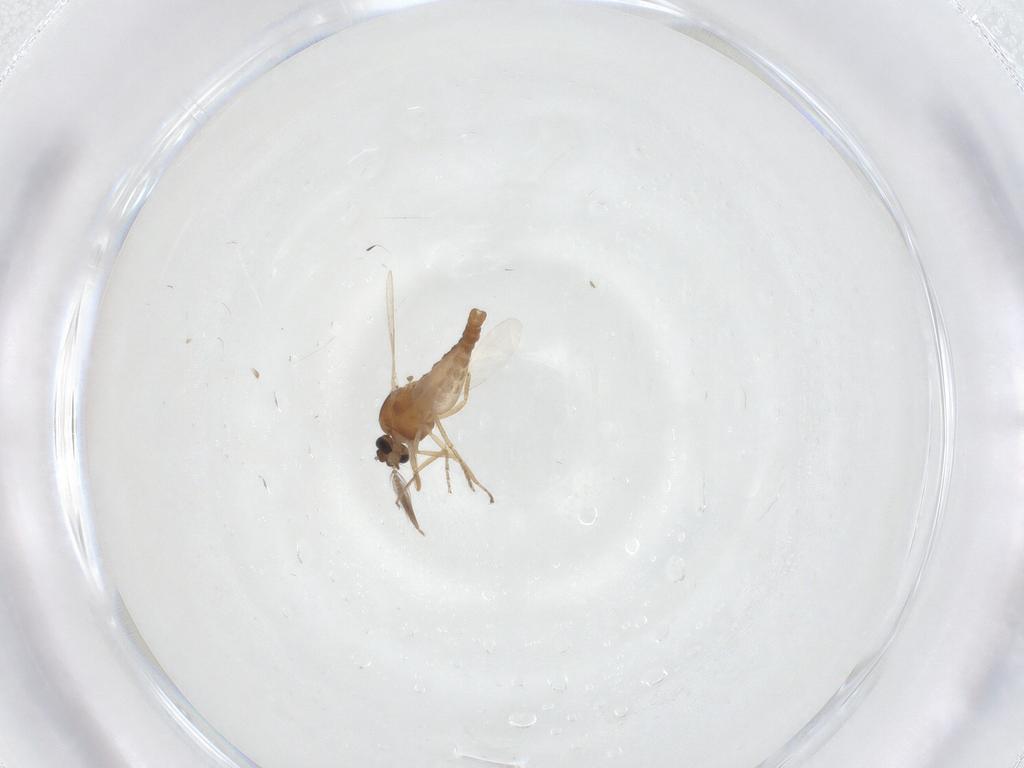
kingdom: Animalia
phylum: Arthropoda
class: Insecta
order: Diptera
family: Ceratopogonidae
